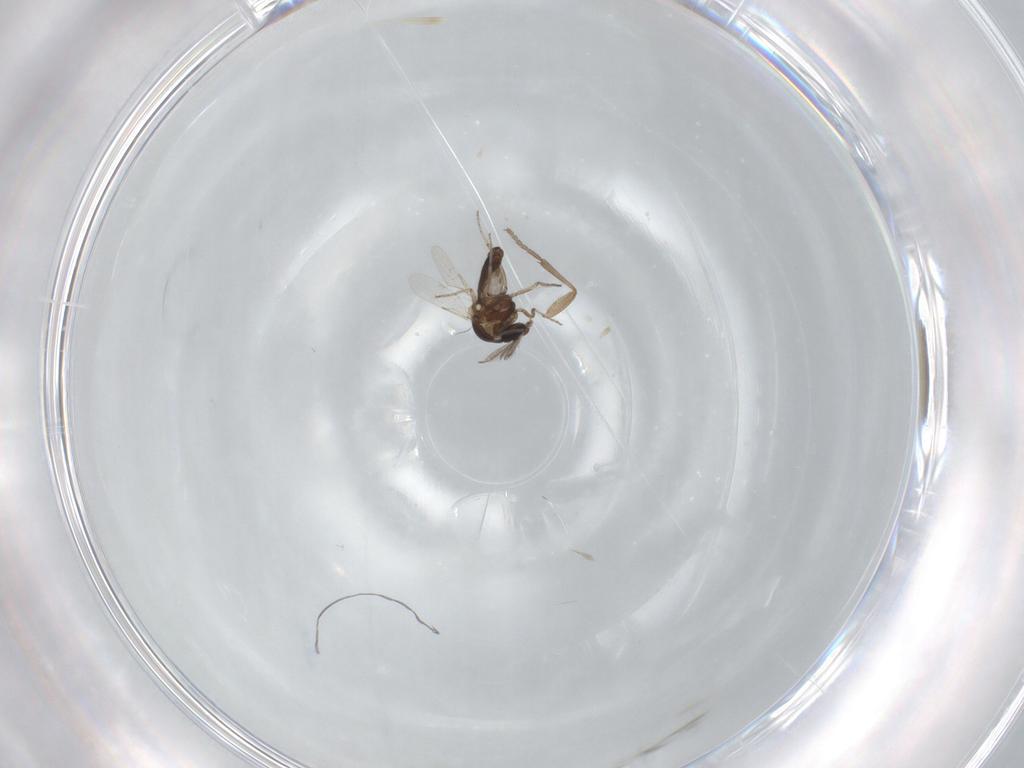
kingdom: Animalia
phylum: Arthropoda
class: Insecta
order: Diptera
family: Ceratopogonidae
